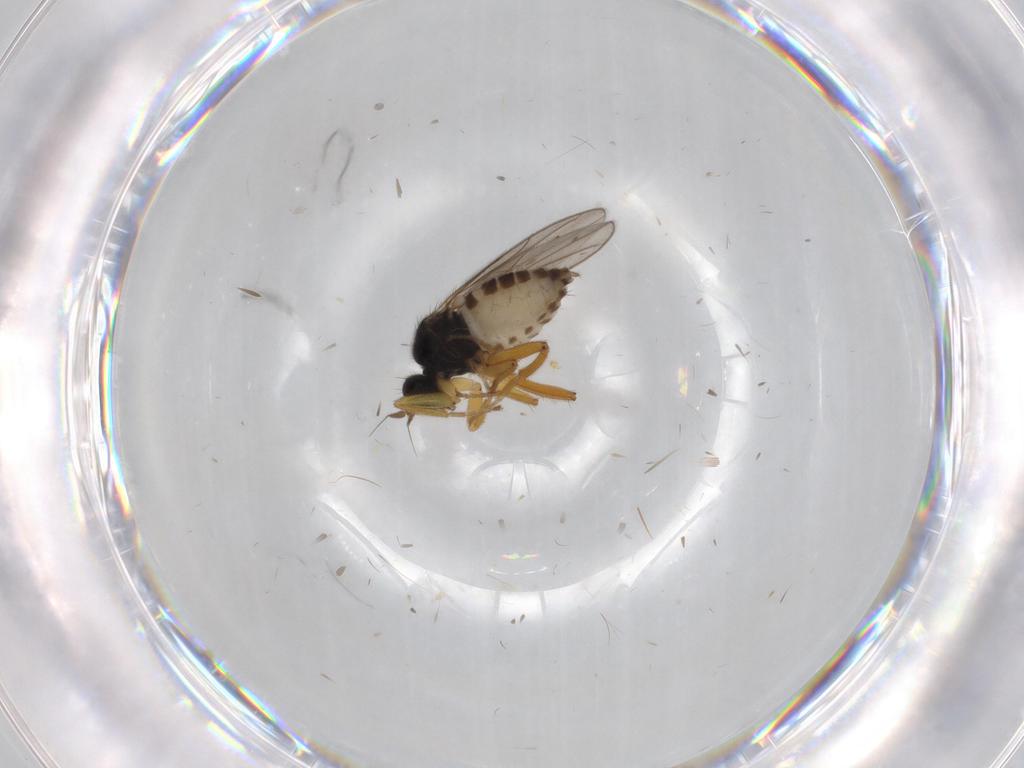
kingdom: Animalia
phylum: Arthropoda
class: Insecta
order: Diptera
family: Hybotidae
